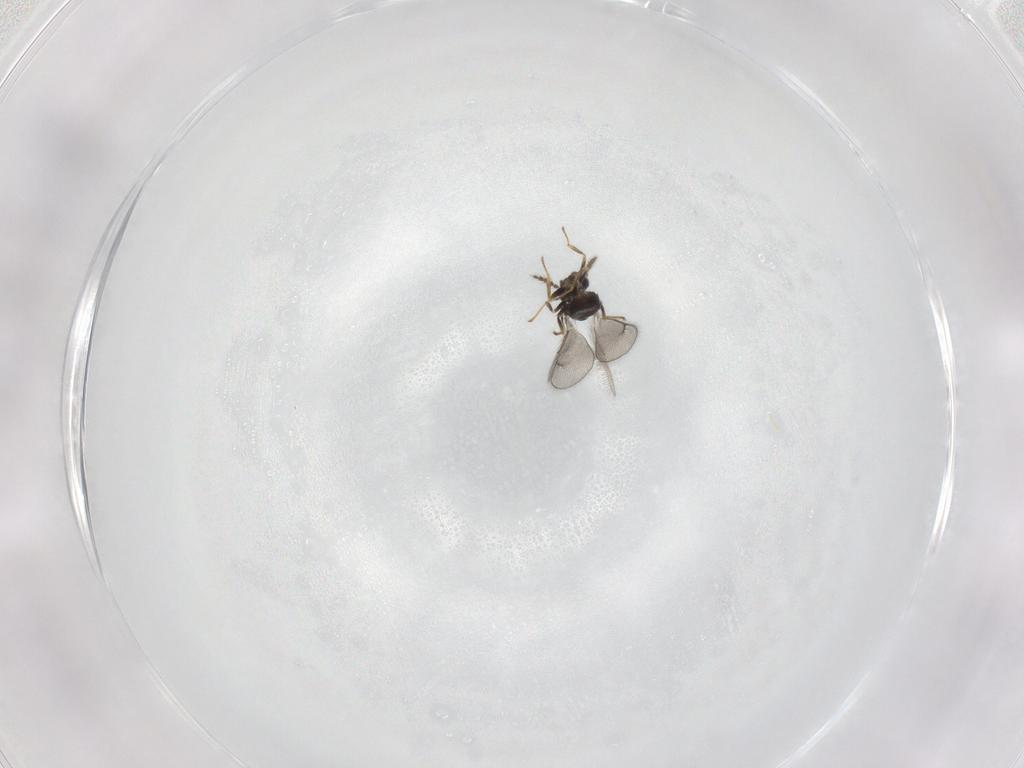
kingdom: Animalia
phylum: Arthropoda
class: Insecta
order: Hymenoptera
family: Eulophidae
